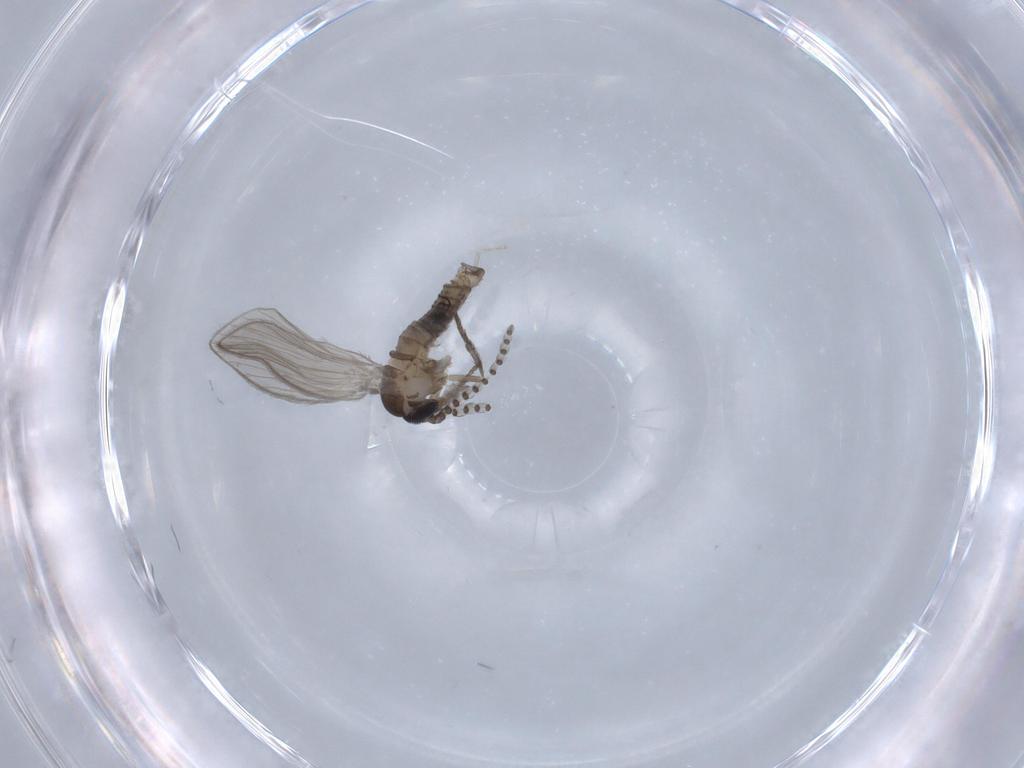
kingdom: Animalia
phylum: Arthropoda
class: Insecta
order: Diptera
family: Psychodidae
